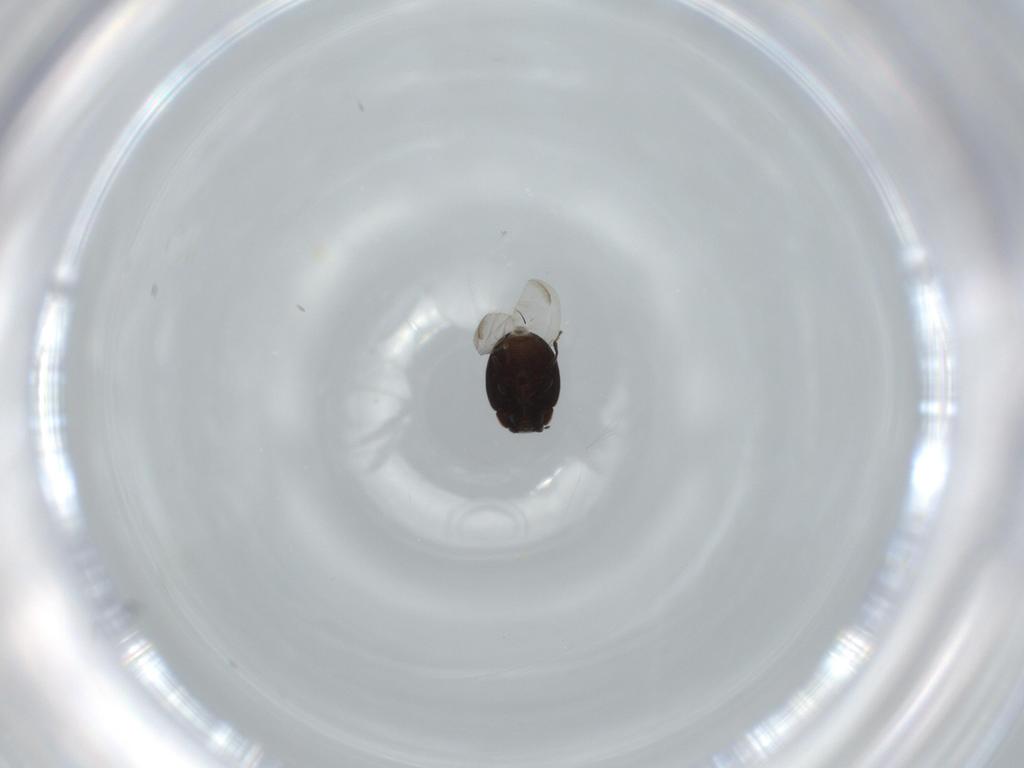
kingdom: Animalia
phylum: Arthropoda
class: Insecta
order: Coleoptera
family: Coccinellidae
